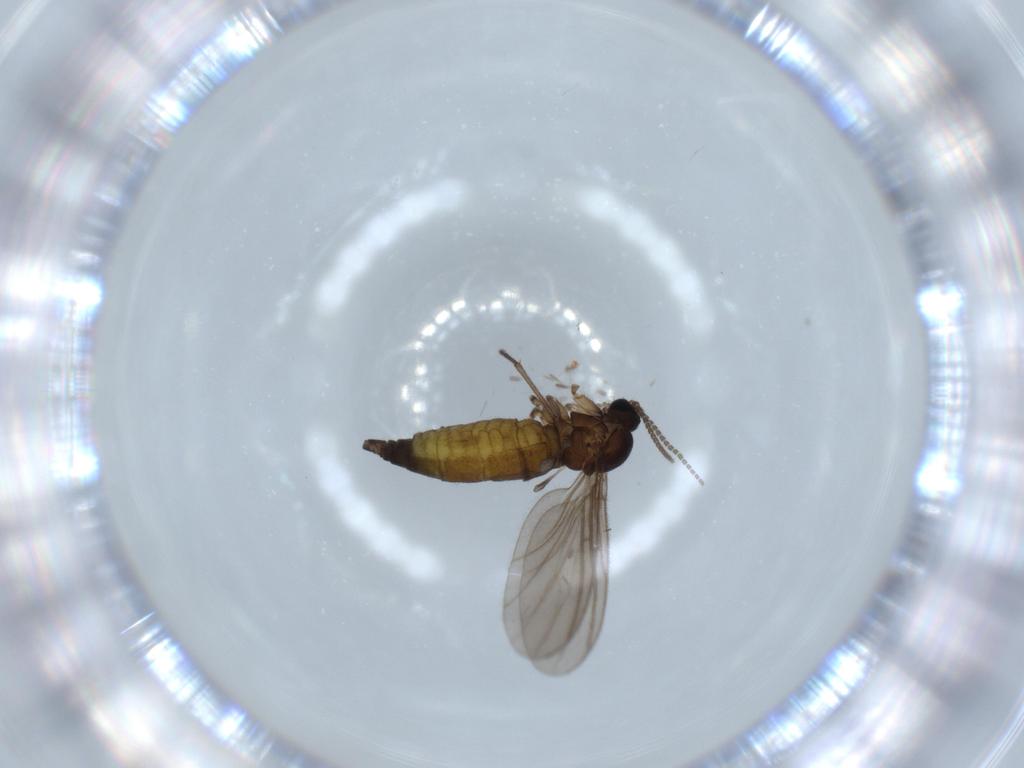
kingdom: Animalia
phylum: Arthropoda
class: Insecta
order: Diptera
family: Sciaridae
